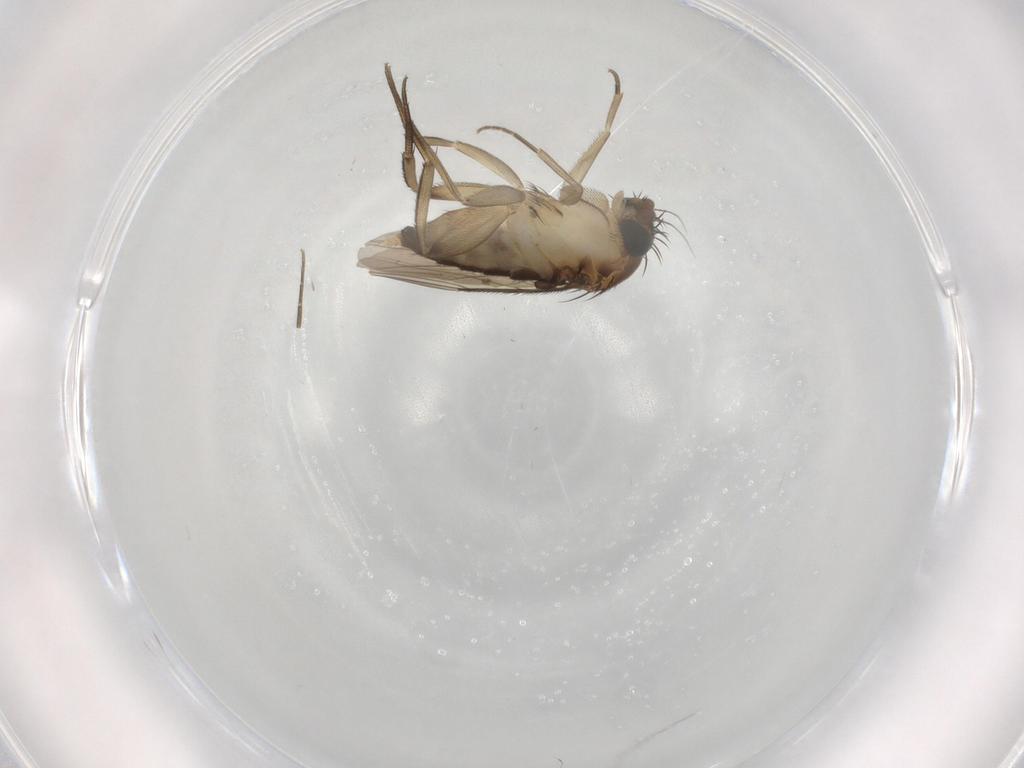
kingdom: Animalia
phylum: Arthropoda
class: Insecta
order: Diptera
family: Phoridae
